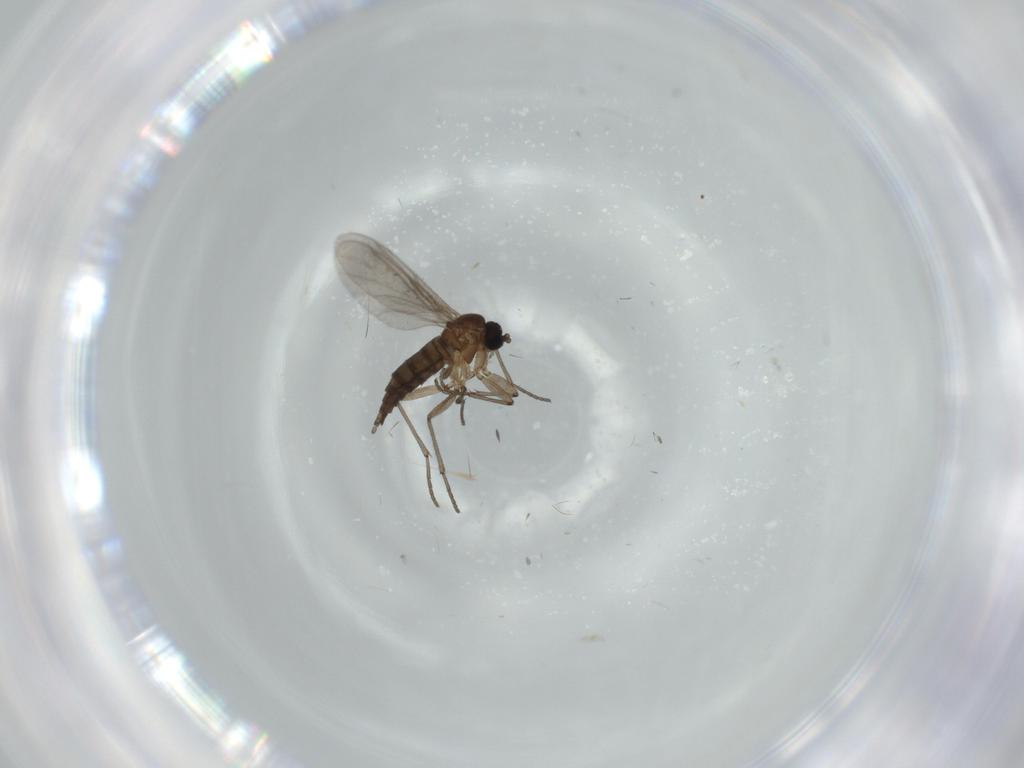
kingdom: Animalia
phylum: Arthropoda
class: Insecta
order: Diptera
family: Sciaridae
